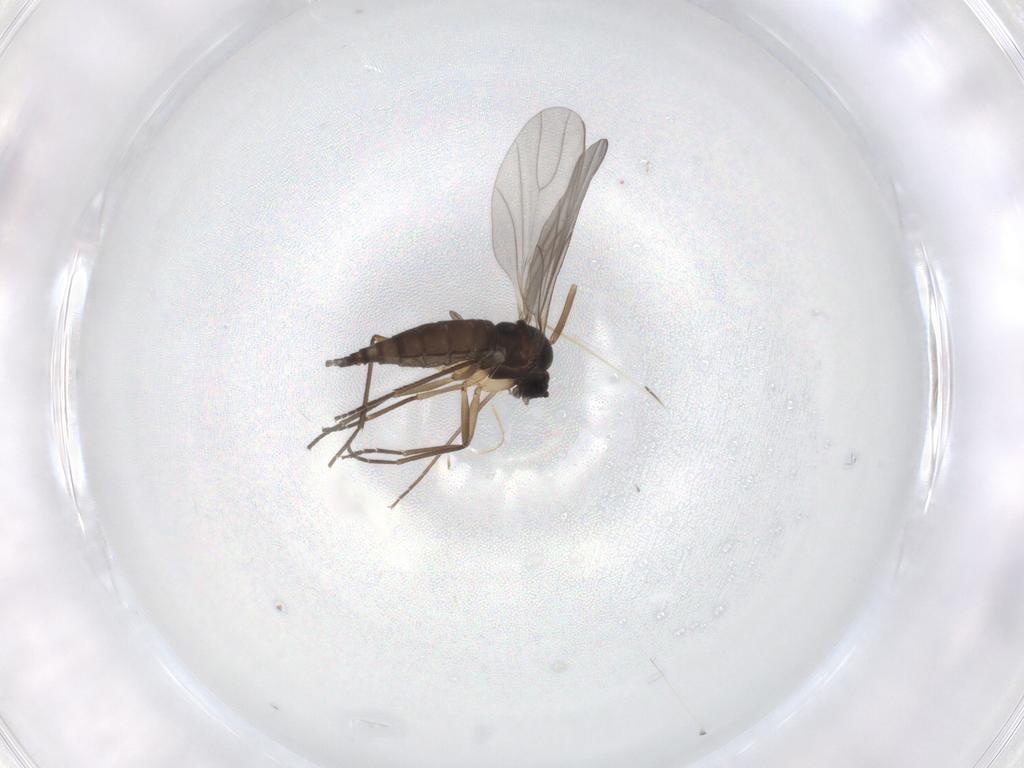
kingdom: Animalia
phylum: Arthropoda
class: Insecta
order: Diptera
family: Sciaridae
